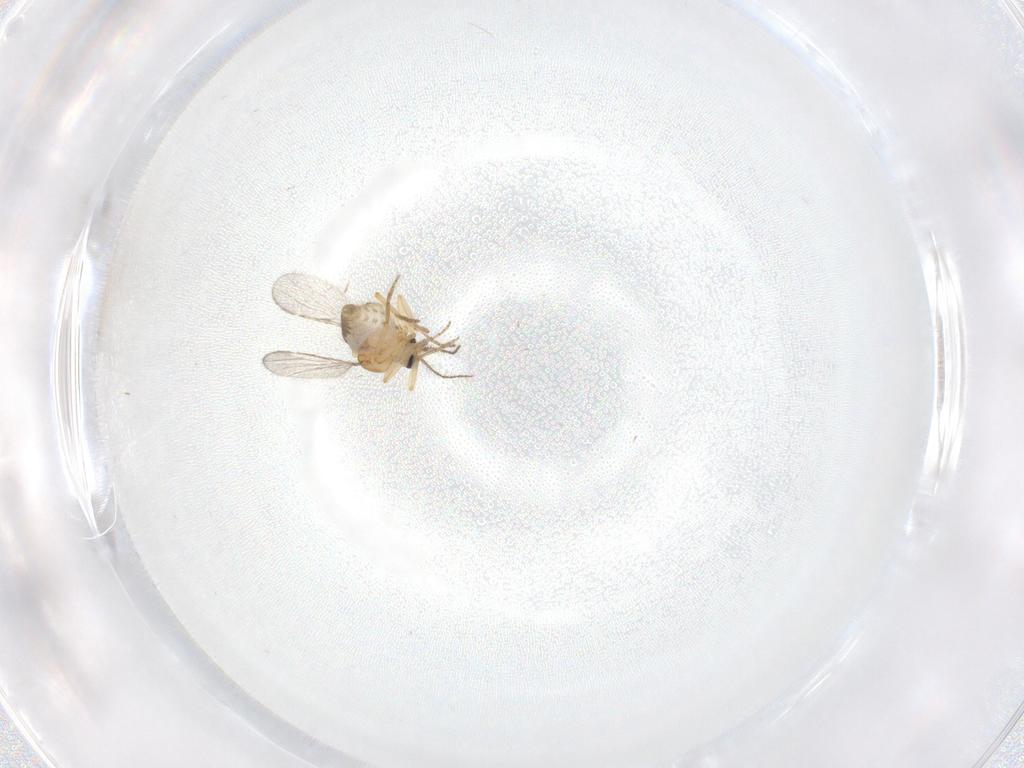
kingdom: Animalia
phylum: Arthropoda
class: Insecta
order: Diptera
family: Ceratopogonidae
